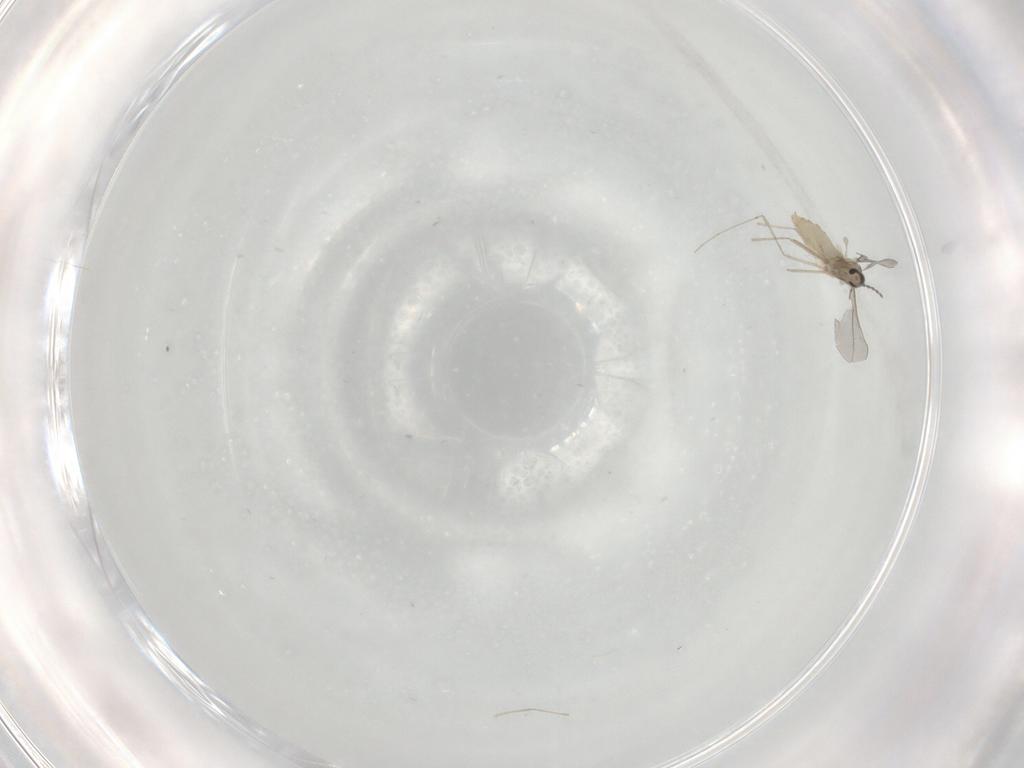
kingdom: Animalia
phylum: Arthropoda
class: Insecta
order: Diptera
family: Cecidomyiidae
